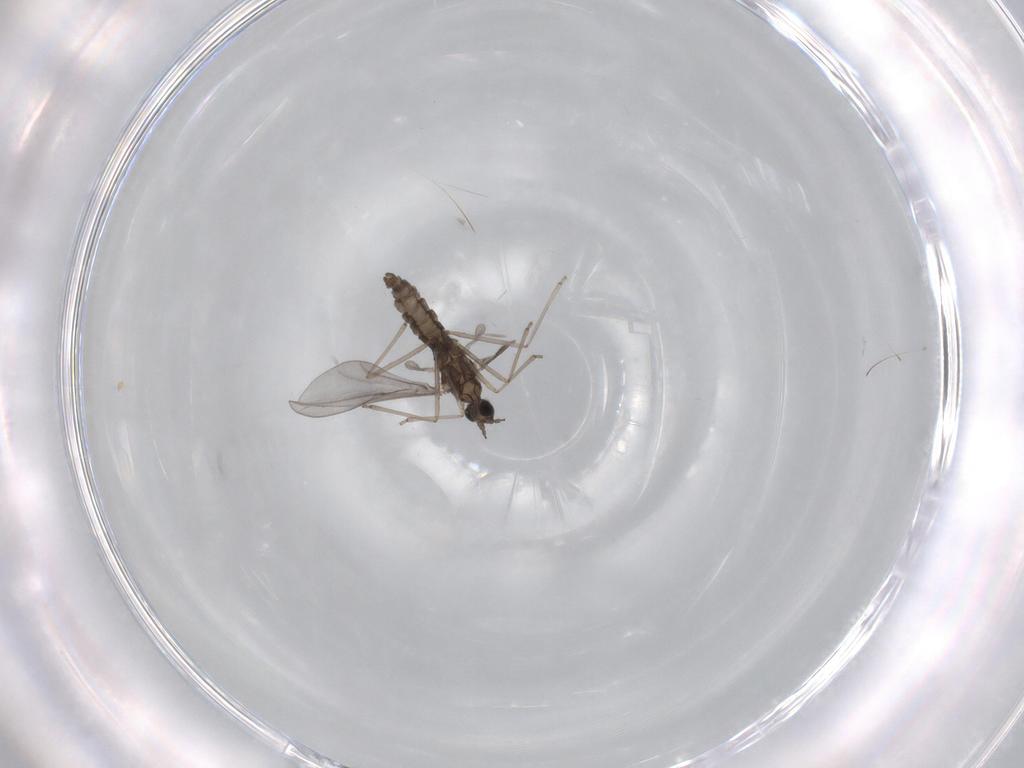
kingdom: Animalia
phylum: Arthropoda
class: Insecta
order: Diptera
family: Cecidomyiidae
